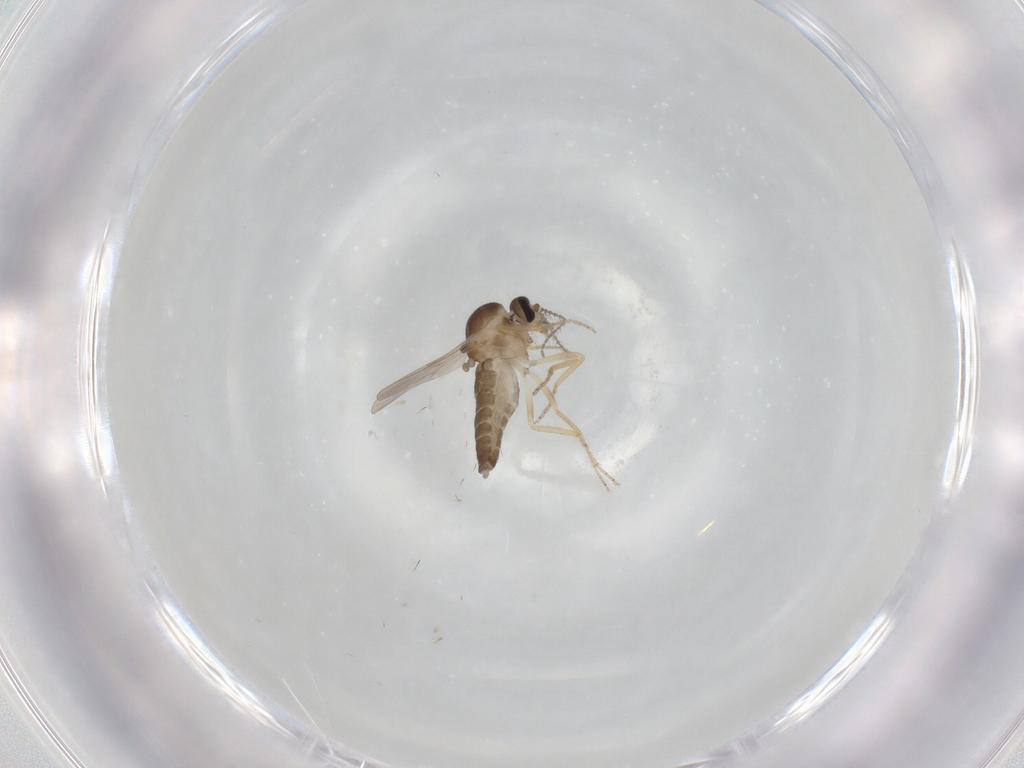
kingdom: Animalia
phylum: Arthropoda
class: Insecta
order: Diptera
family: Ceratopogonidae
